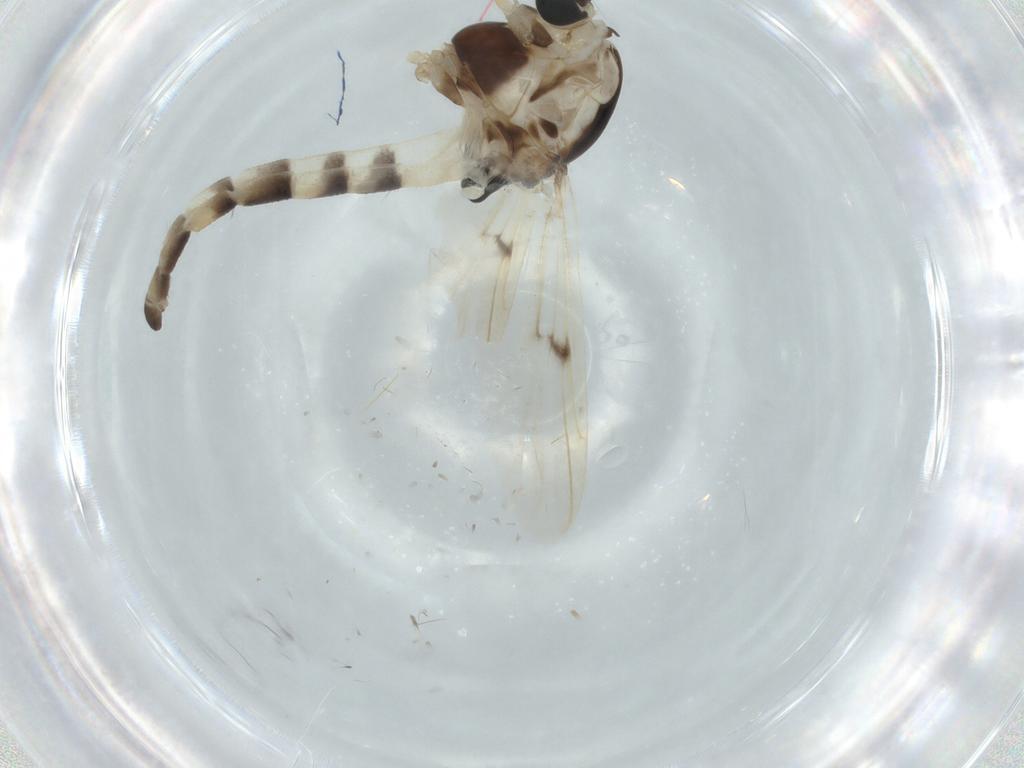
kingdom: Animalia
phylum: Arthropoda
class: Insecta
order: Diptera
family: Chironomidae
